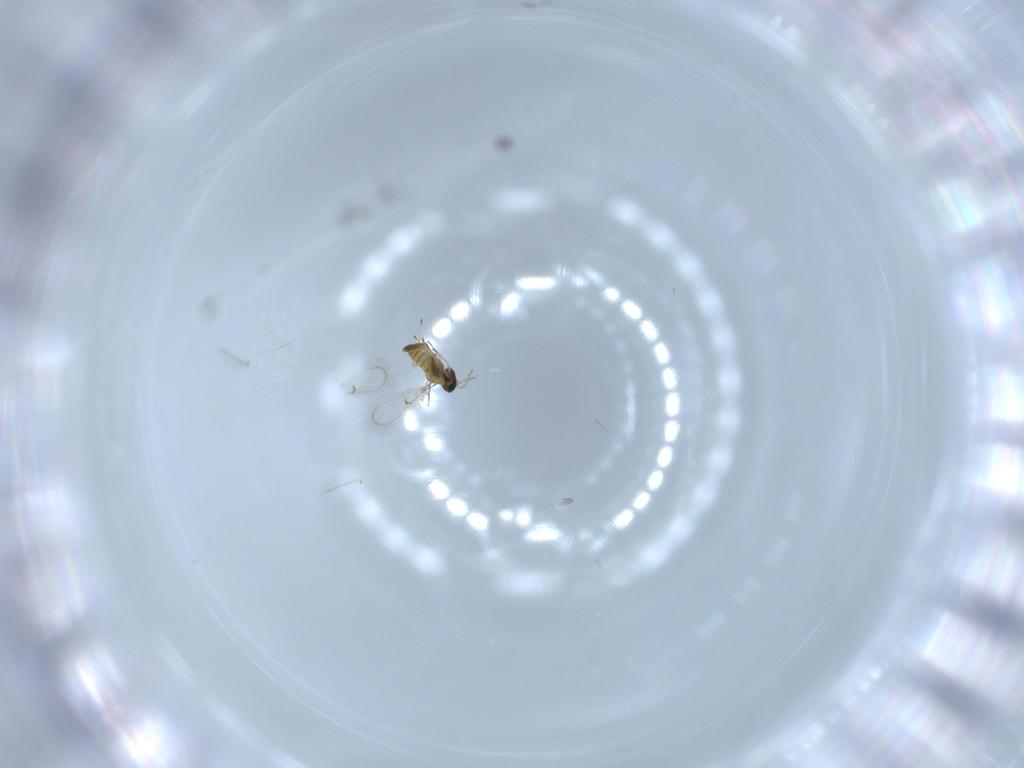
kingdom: Animalia
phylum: Arthropoda
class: Insecta
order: Hymenoptera
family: Trichogrammatidae
